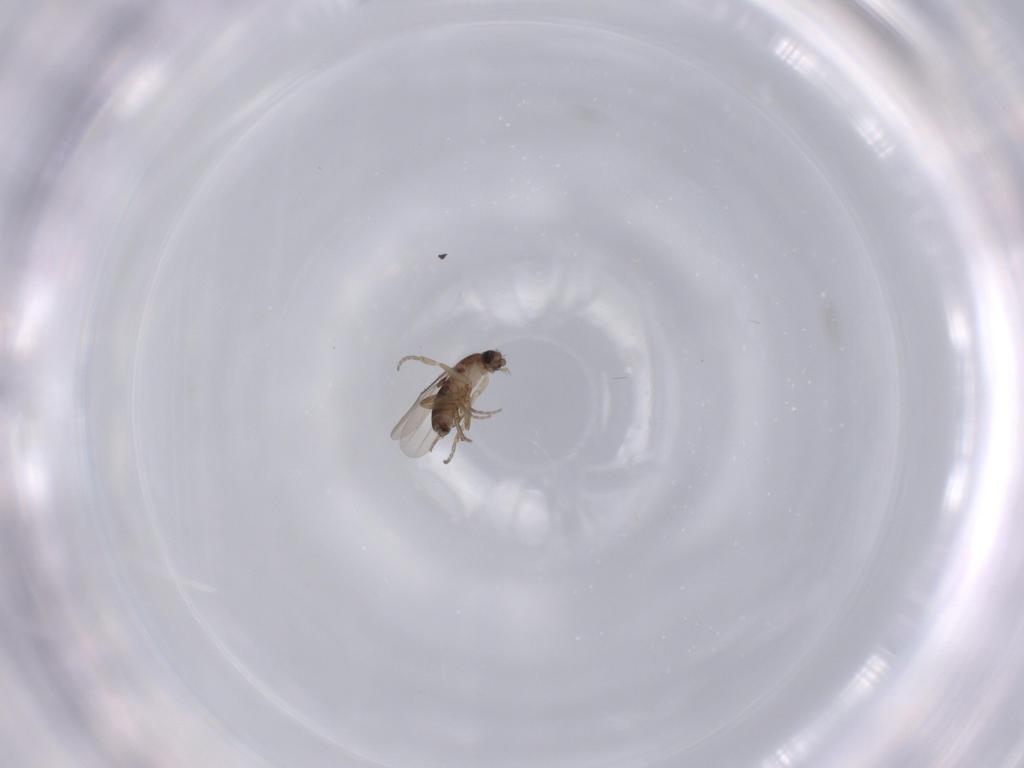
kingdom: Animalia
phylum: Arthropoda
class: Insecta
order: Diptera
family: Phoridae
